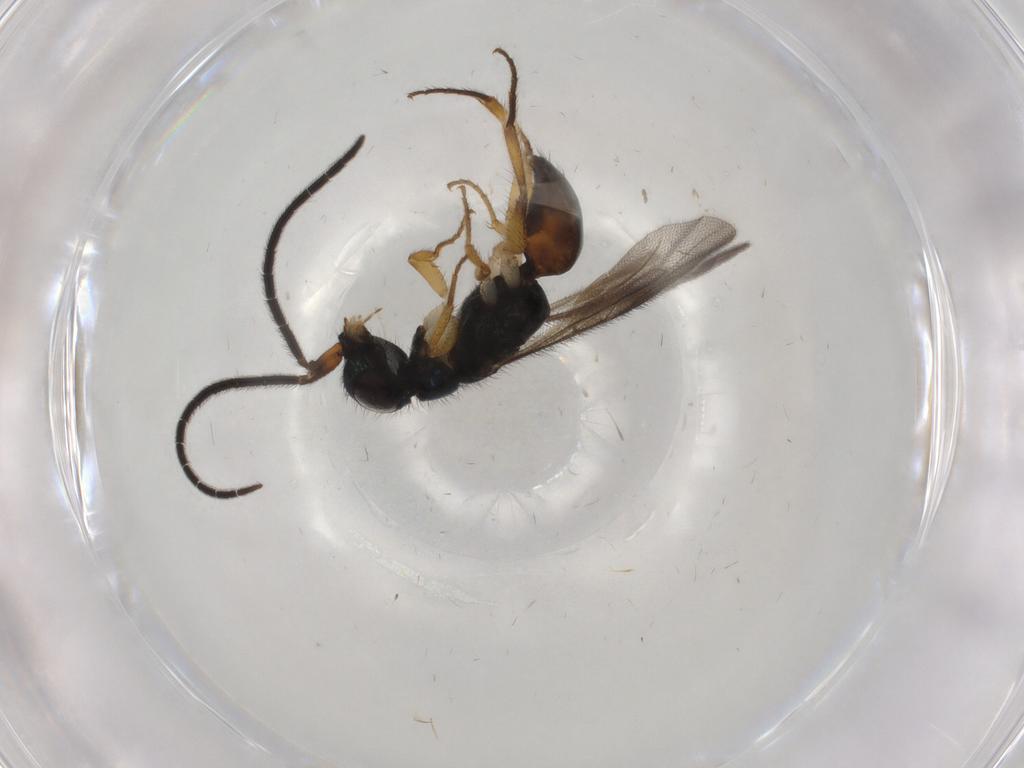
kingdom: Animalia
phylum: Arthropoda
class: Insecta
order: Hymenoptera
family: Chrysididae
